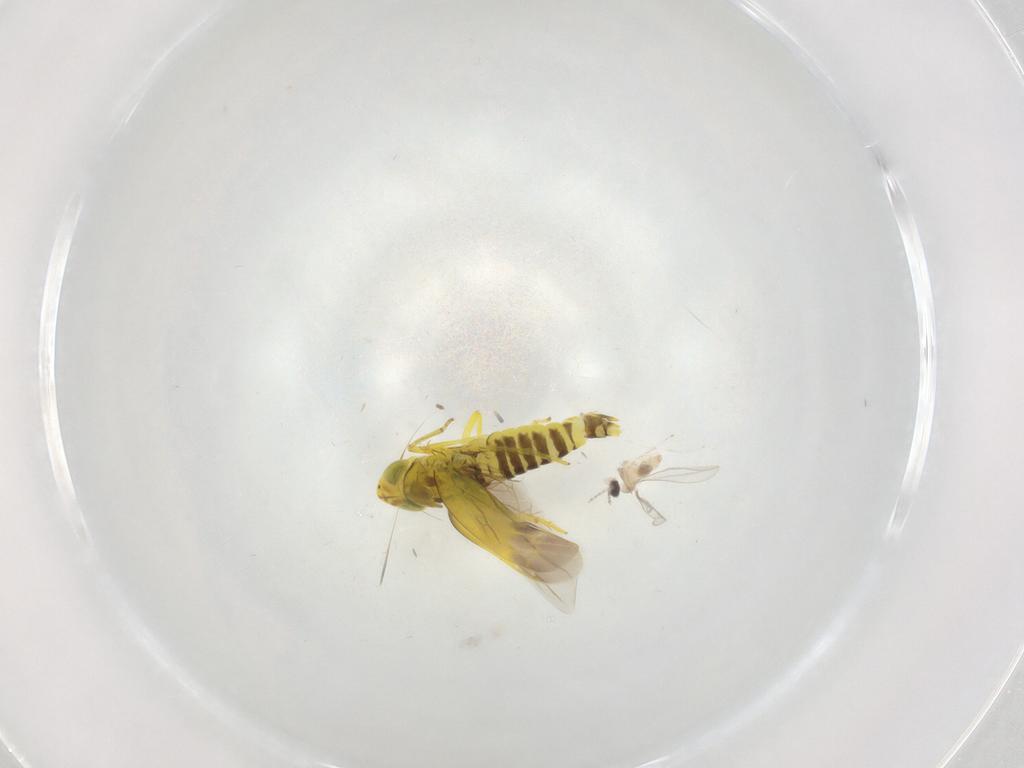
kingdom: Animalia
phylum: Arthropoda
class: Insecta
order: Diptera
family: Cecidomyiidae
